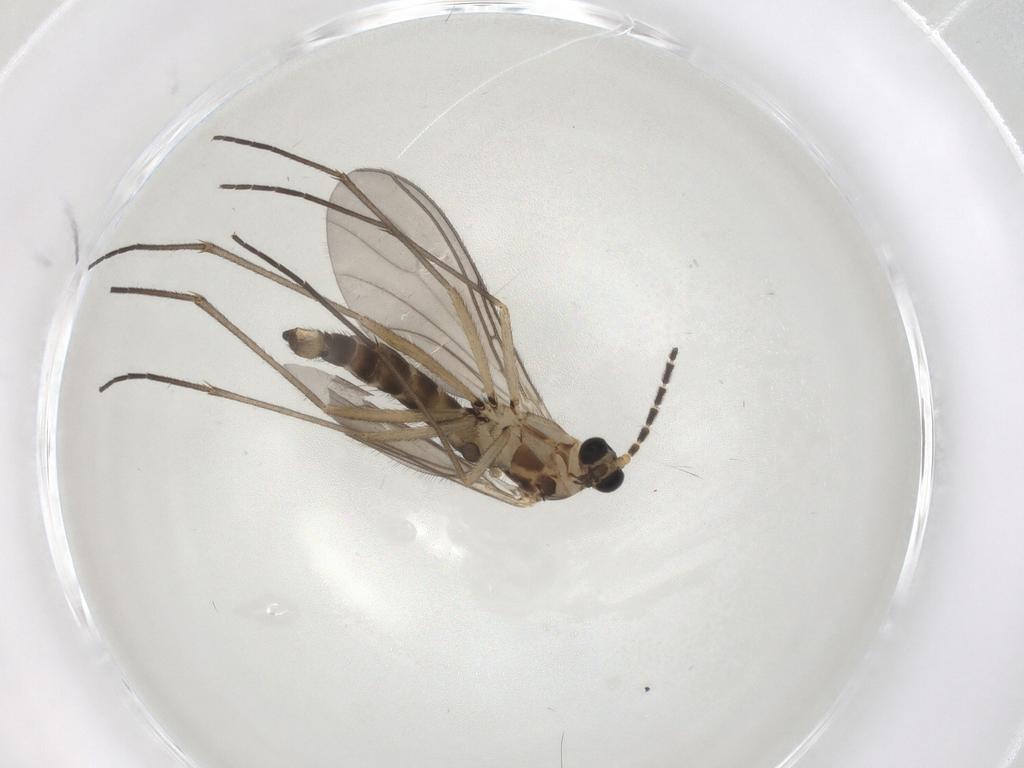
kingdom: Animalia
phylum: Arthropoda
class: Insecta
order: Diptera
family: Sciaridae
